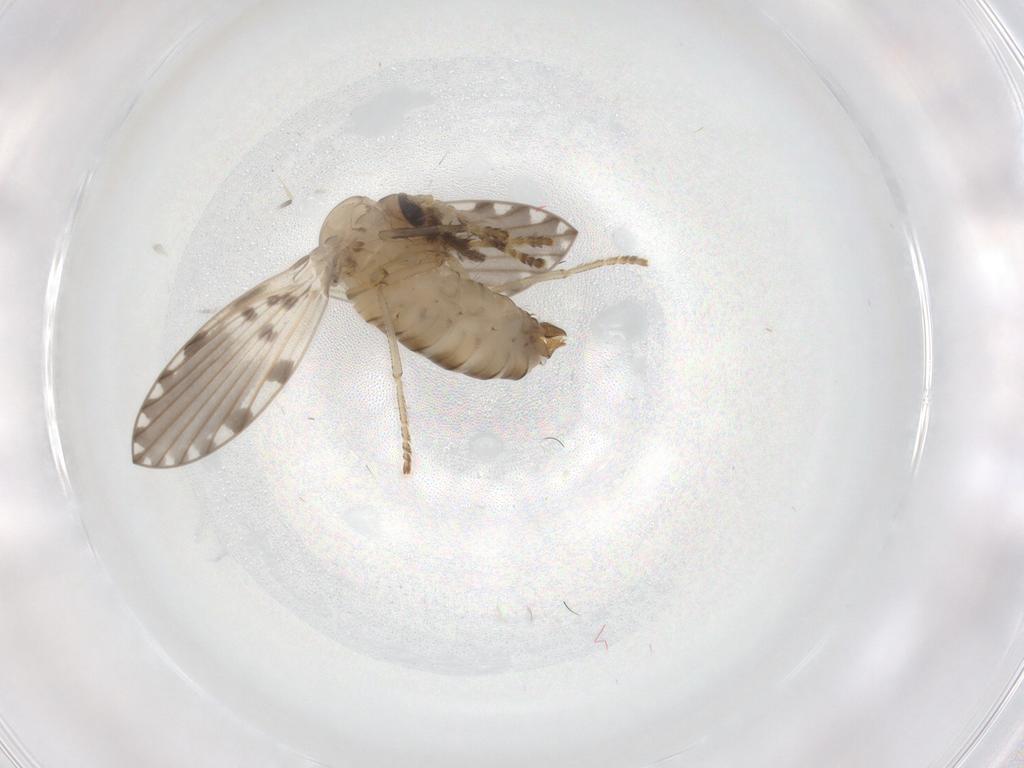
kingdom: Animalia
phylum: Arthropoda
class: Insecta
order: Diptera
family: Psychodidae
